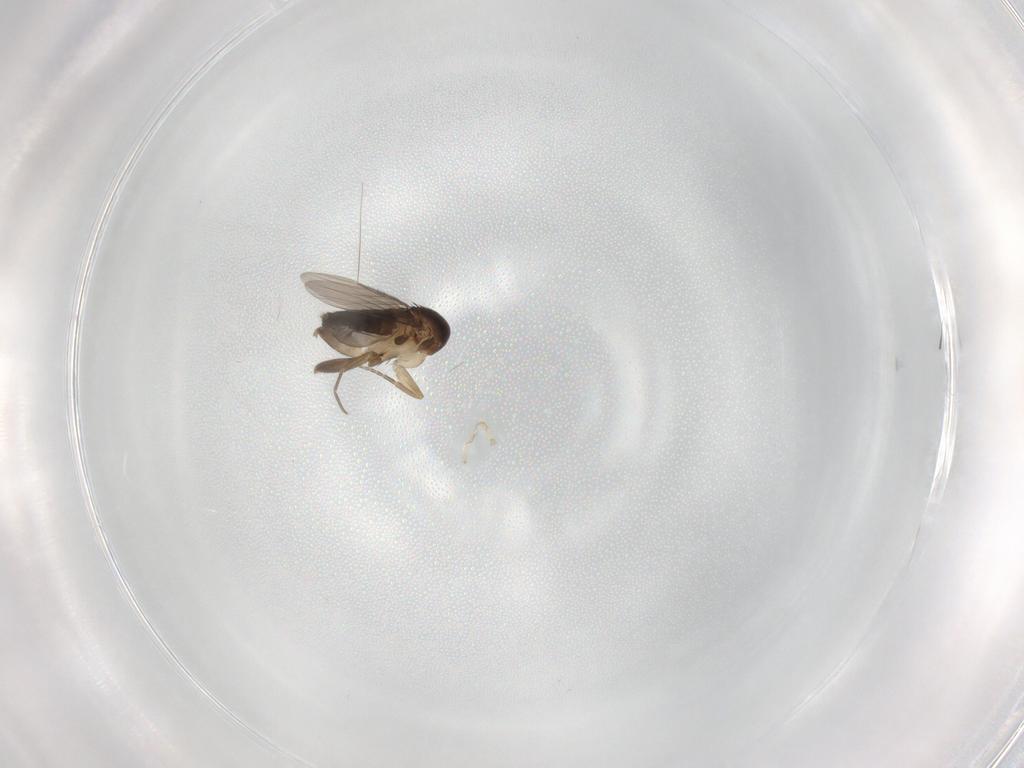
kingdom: Animalia
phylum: Arthropoda
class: Insecta
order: Diptera
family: Phoridae
